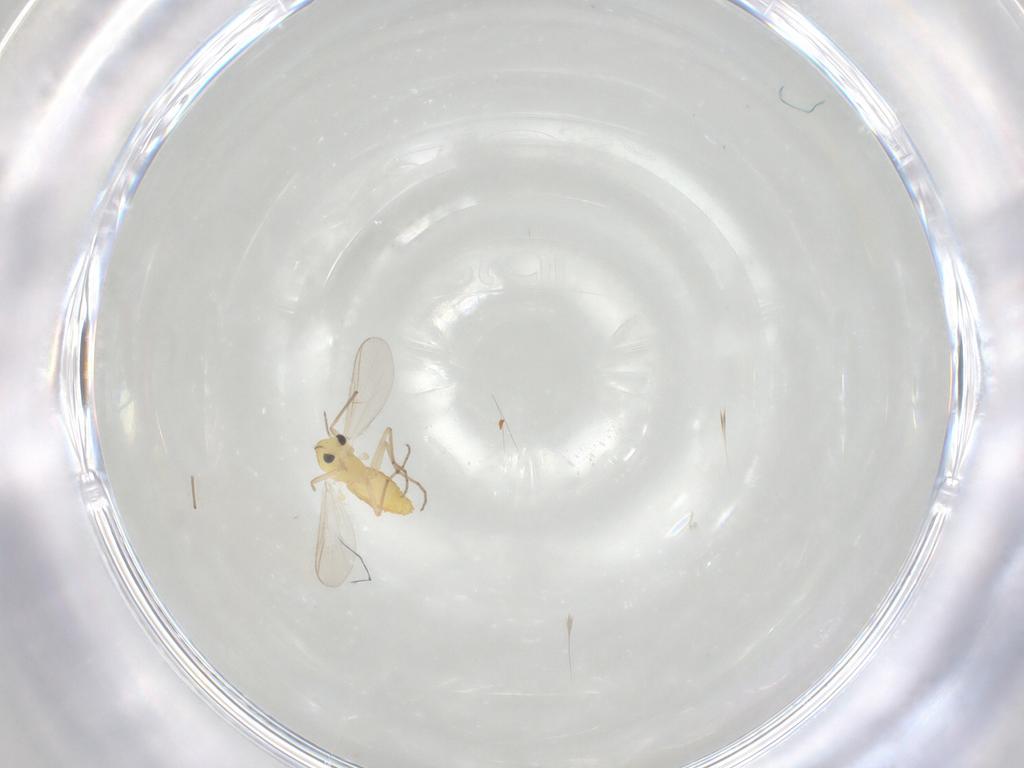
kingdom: Animalia
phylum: Arthropoda
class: Insecta
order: Diptera
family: Chironomidae
